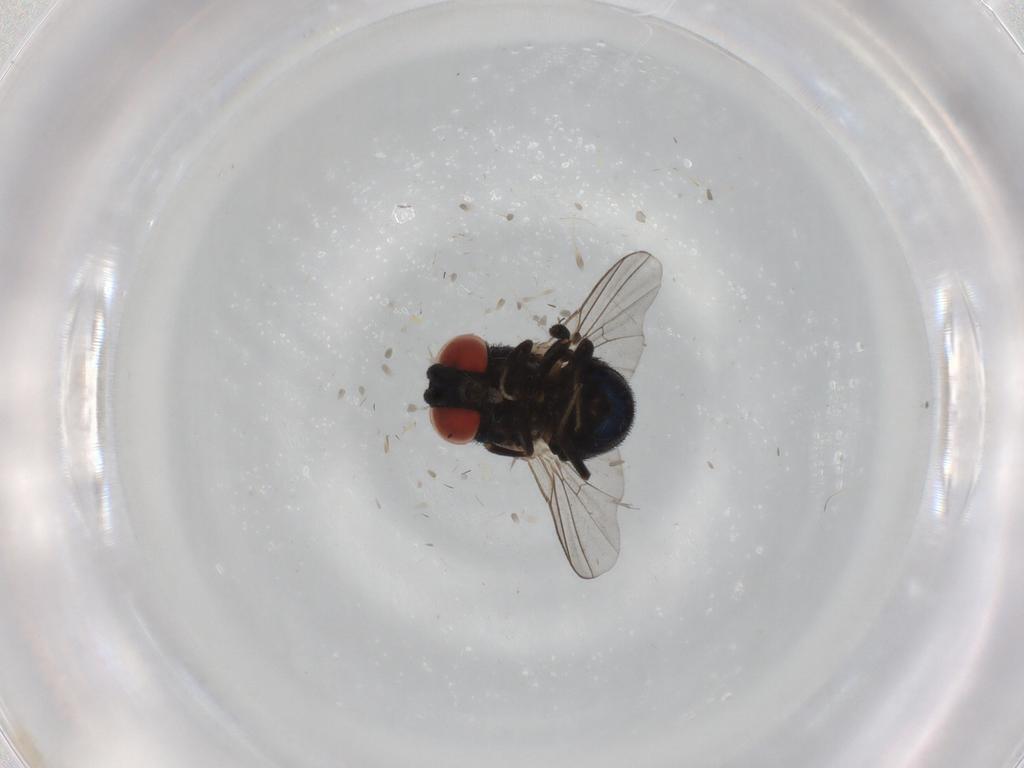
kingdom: Animalia
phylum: Arthropoda
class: Insecta
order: Diptera
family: Cryptochetidae
